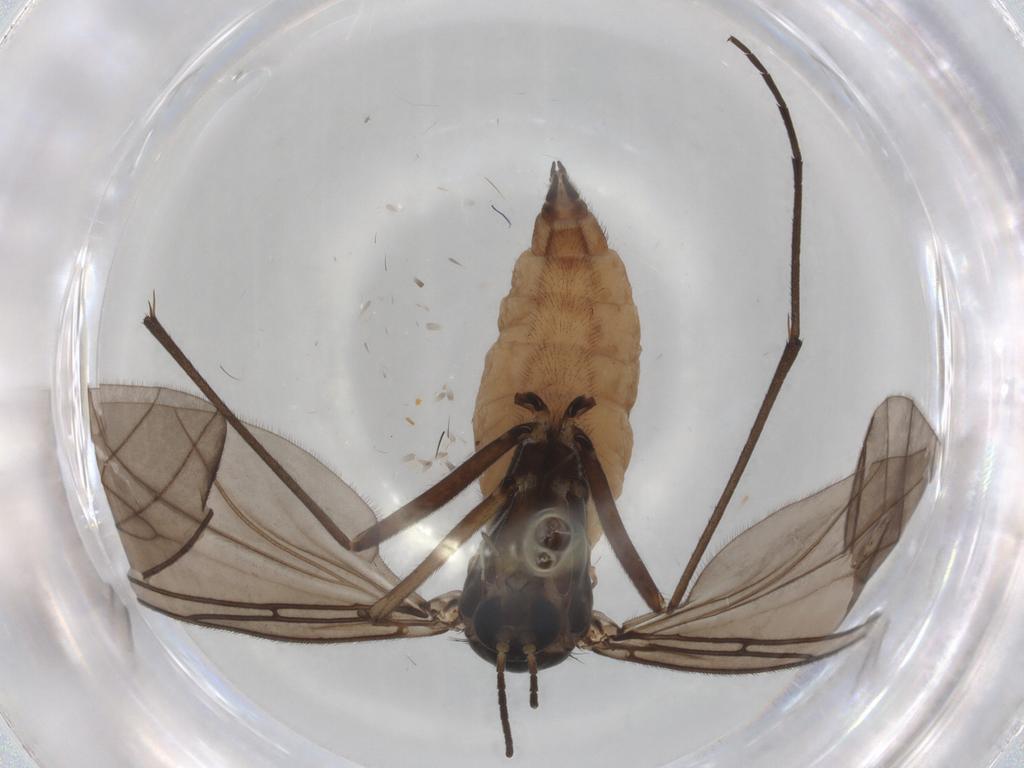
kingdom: Animalia
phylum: Arthropoda
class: Insecta
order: Diptera
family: Sciaridae
